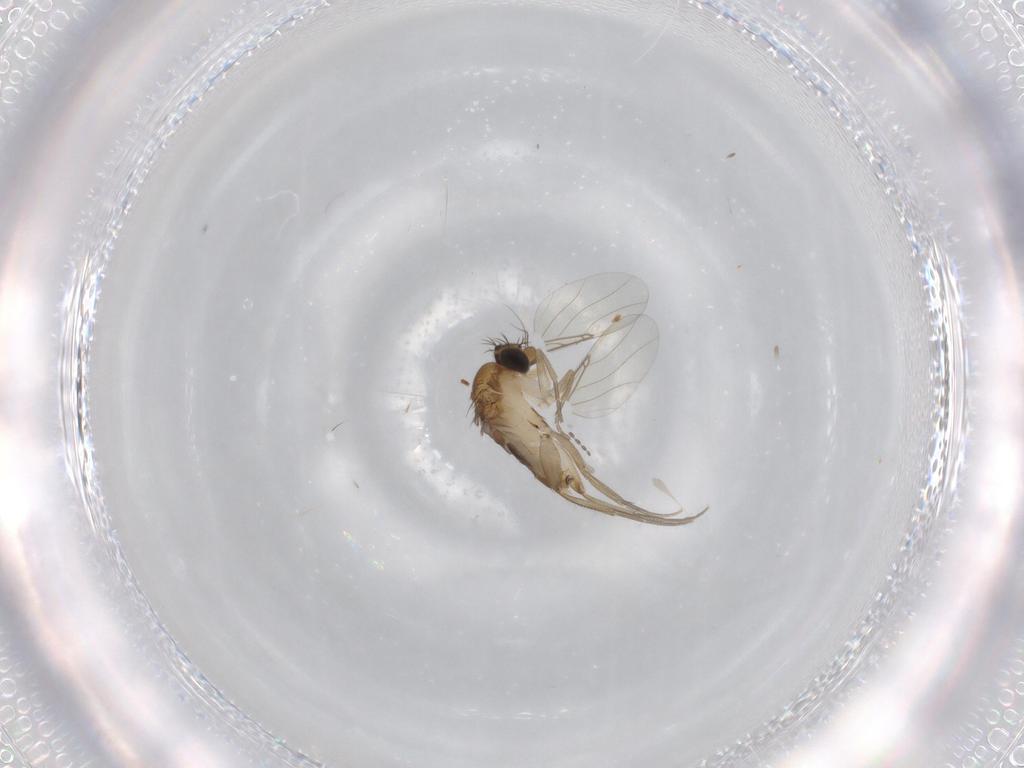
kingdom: Animalia
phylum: Arthropoda
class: Insecta
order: Diptera
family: Phoridae
